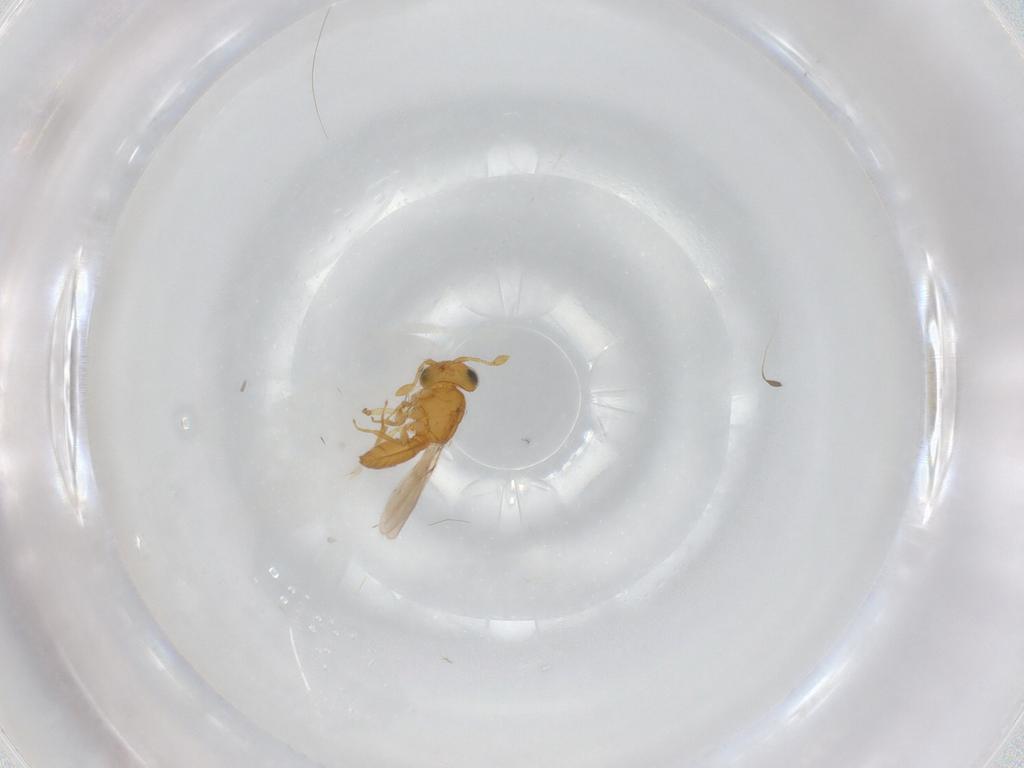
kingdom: Animalia
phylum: Arthropoda
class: Insecta
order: Hymenoptera
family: Scelionidae
